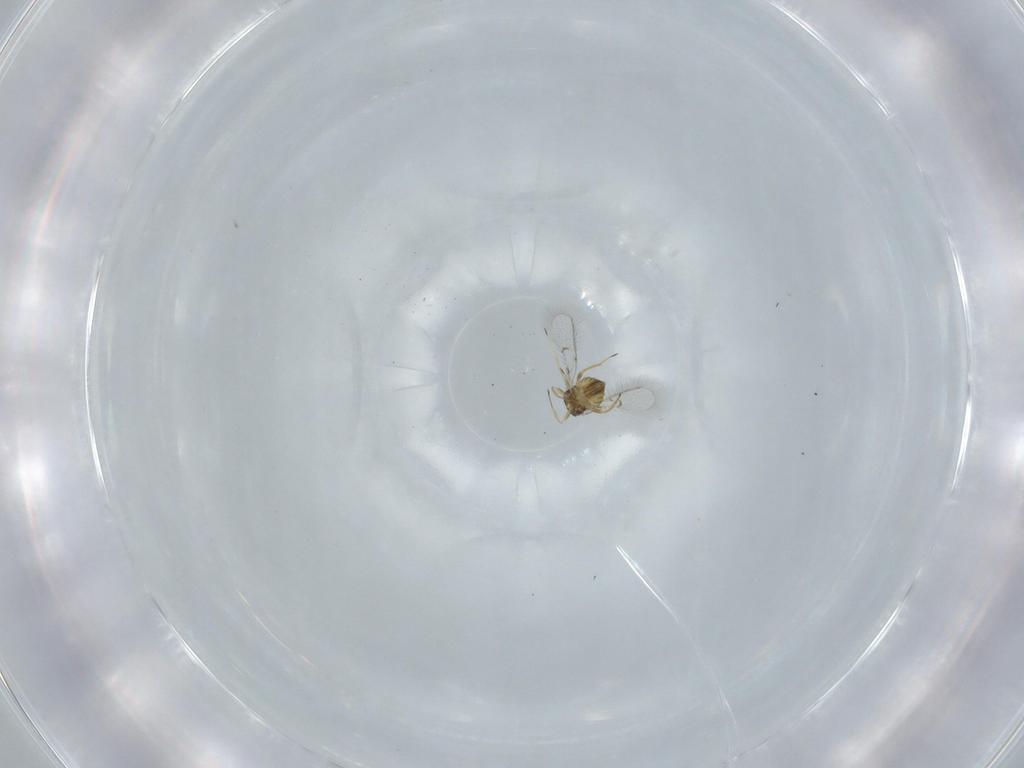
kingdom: Animalia
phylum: Arthropoda
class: Insecta
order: Hymenoptera
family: Trichogrammatidae
